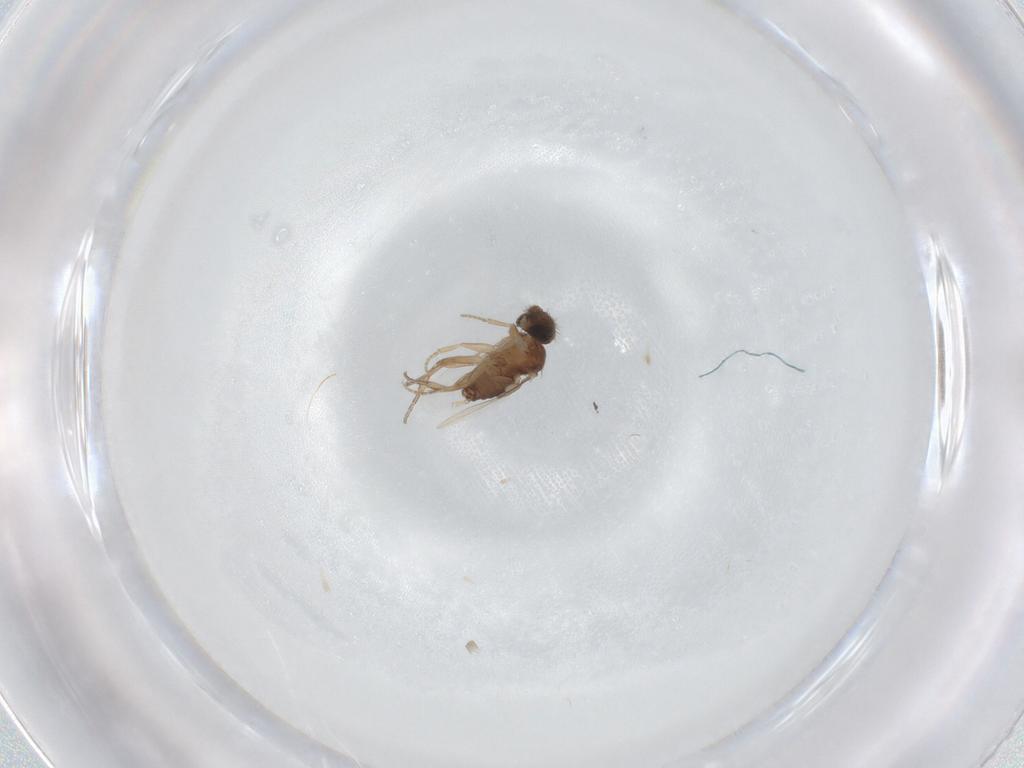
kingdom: Animalia
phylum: Arthropoda
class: Insecta
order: Diptera
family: Phoridae
